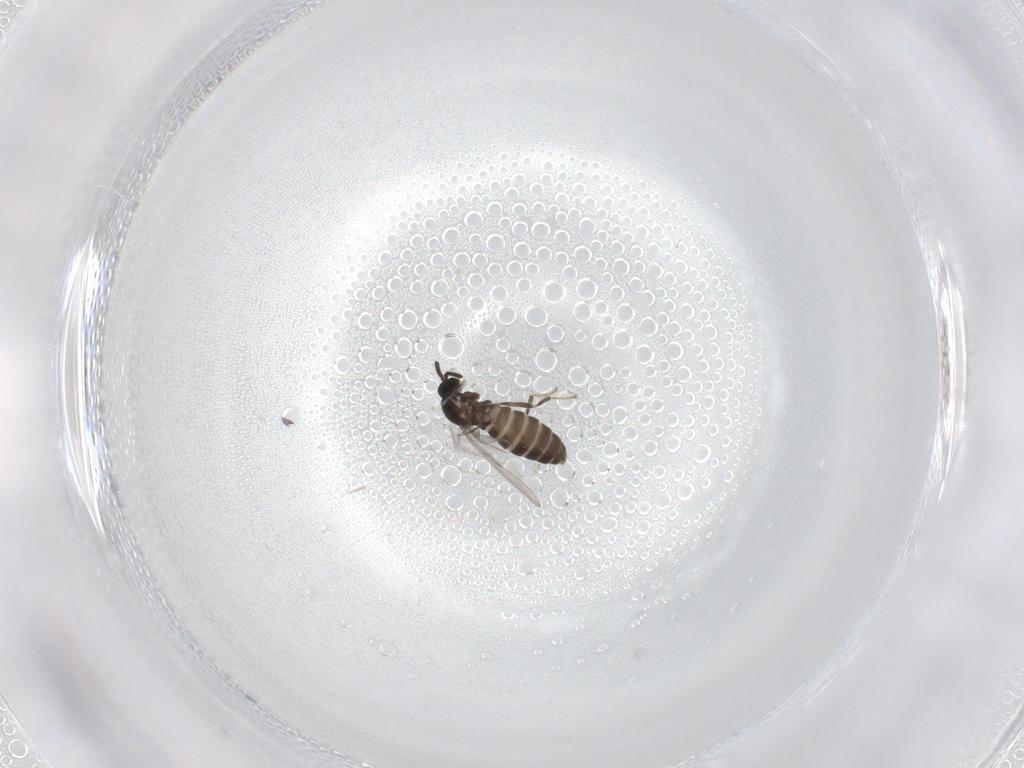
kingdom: Animalia
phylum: Arthropoda
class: Insecta
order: Diptera
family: Scatopsidae
